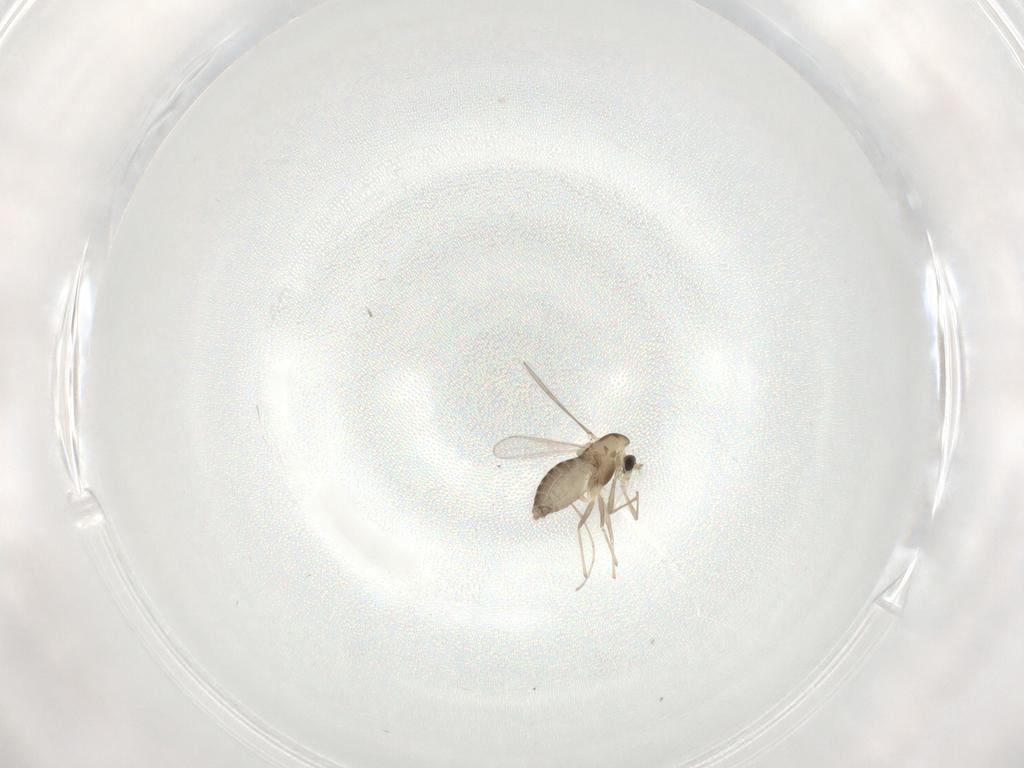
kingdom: Animalia
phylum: Arthropoda
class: Insecta
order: Diptera
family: Chironomidae
